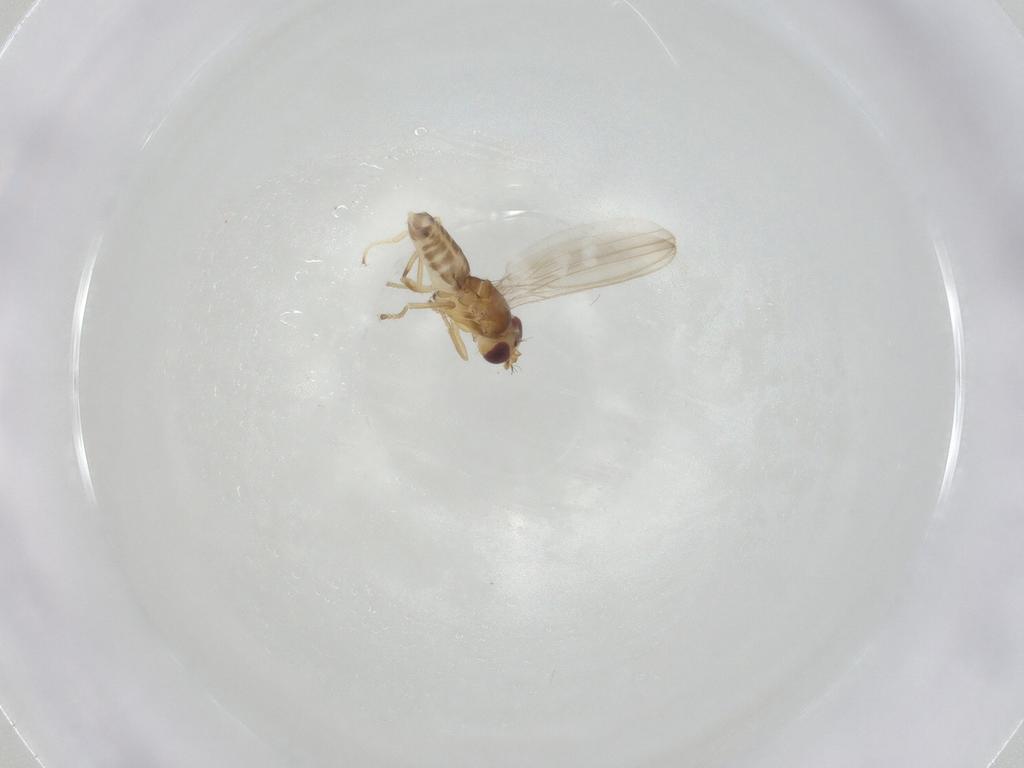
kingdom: Animalia
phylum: Arthropoda
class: Insecta
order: Diptera
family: Periscelididae
